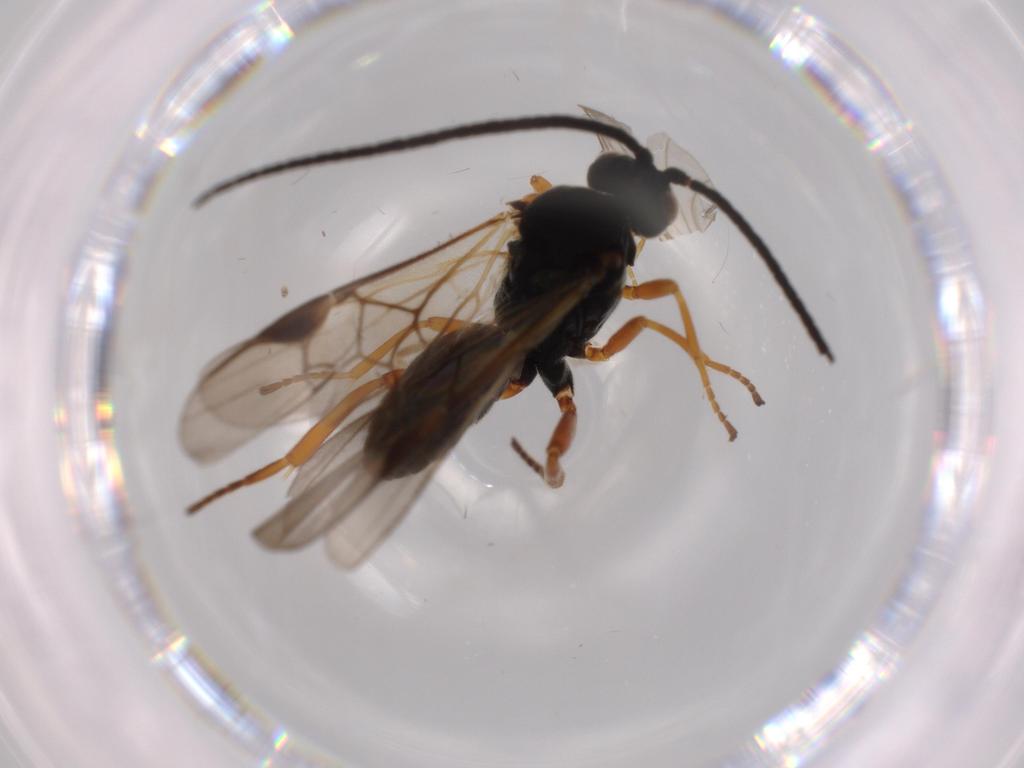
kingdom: Animalia
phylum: Arthropoda
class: Insecta
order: Hymenoptera
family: Braconidae
